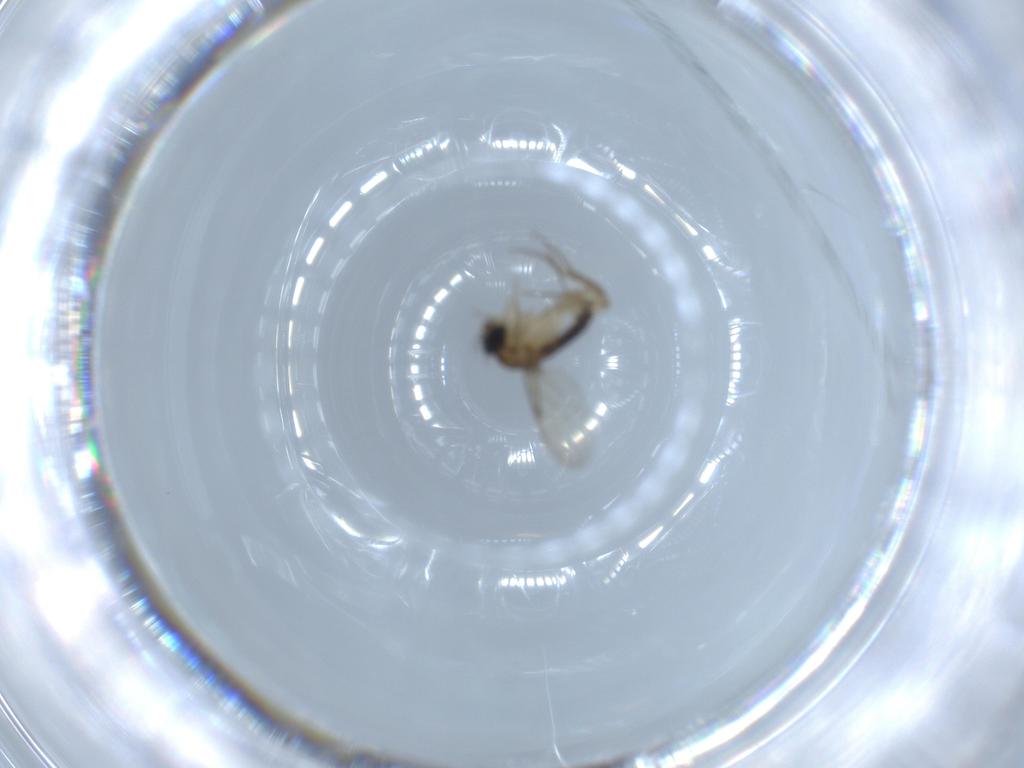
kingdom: Animalia
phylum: Arthropoda
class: Insecta
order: Diptera
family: Phoridae
